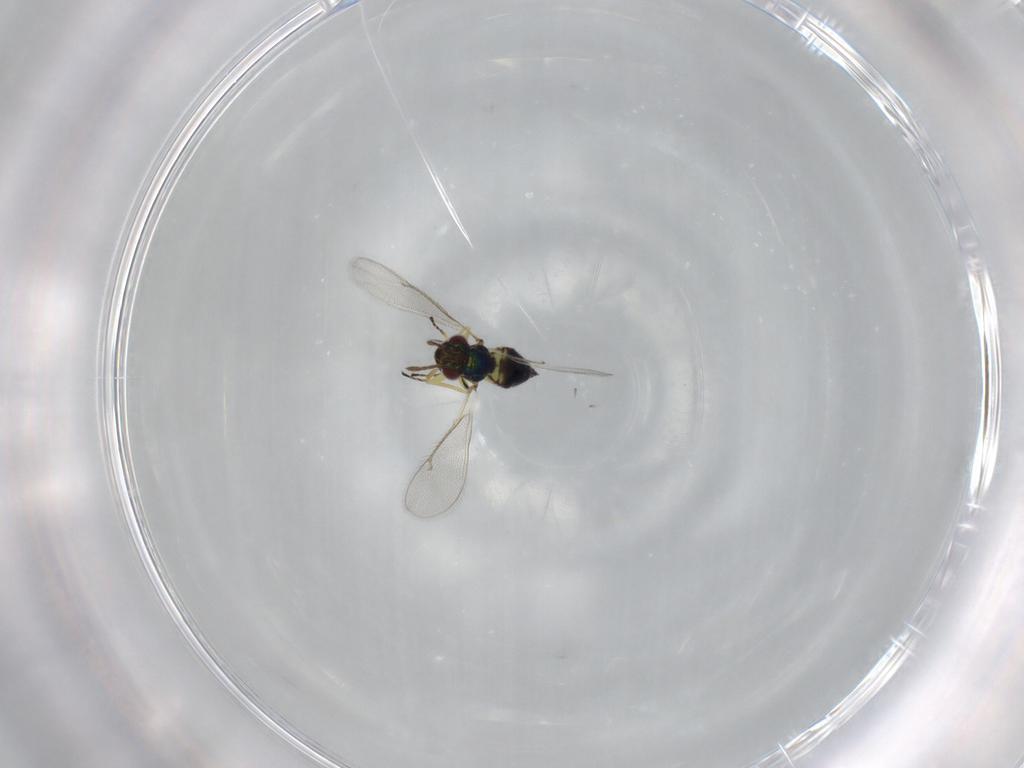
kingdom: Animalia
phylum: Arthropoda
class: Insecta
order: Hymenoptera
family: Eulophidae
